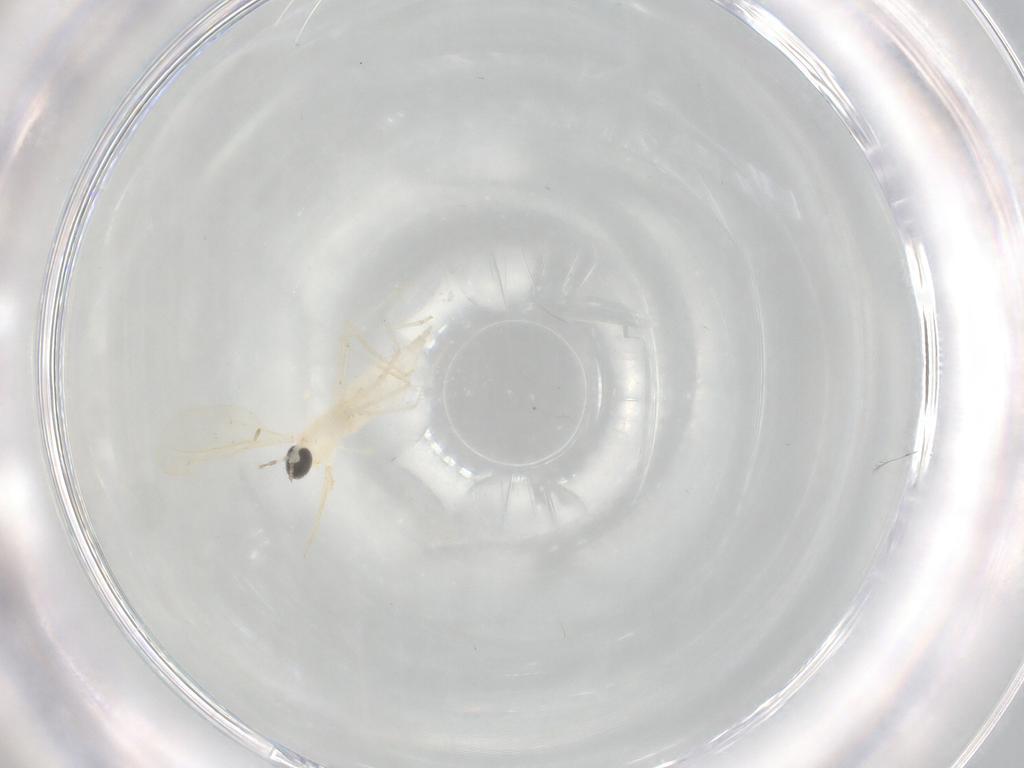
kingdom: Animalia
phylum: Arthropoda
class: Insecta
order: Diptera
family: Cecidomyiidae
